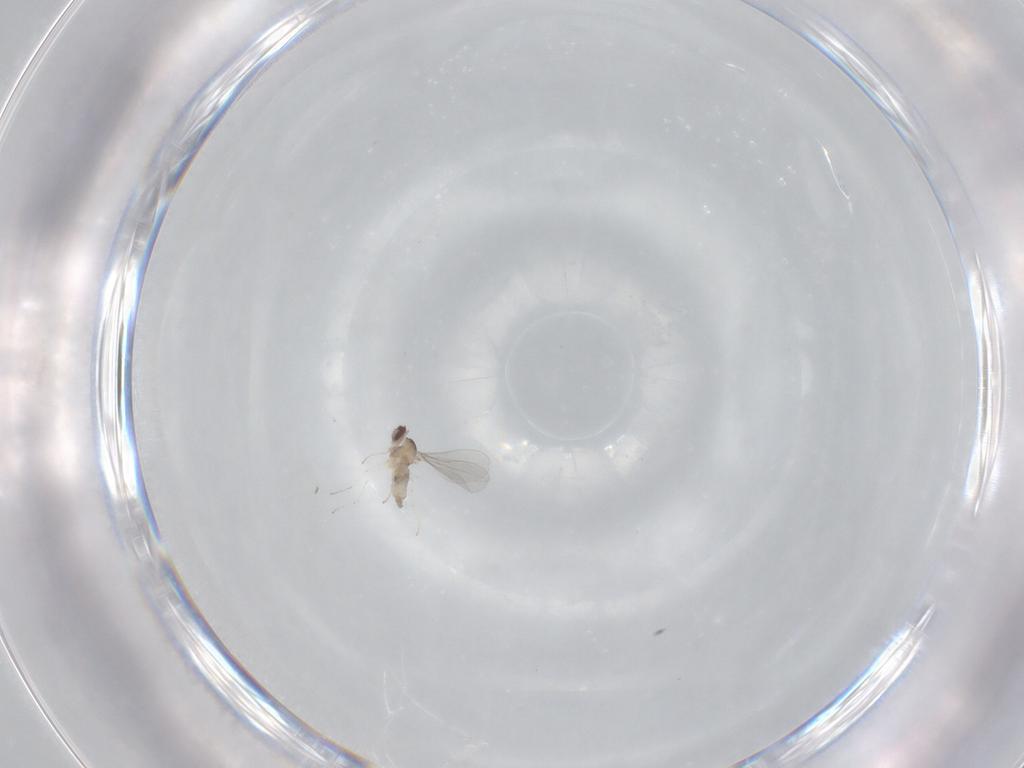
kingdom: Animalia
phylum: Arthropoda
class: Insecta
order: Diptera
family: Cecidomyiidae
